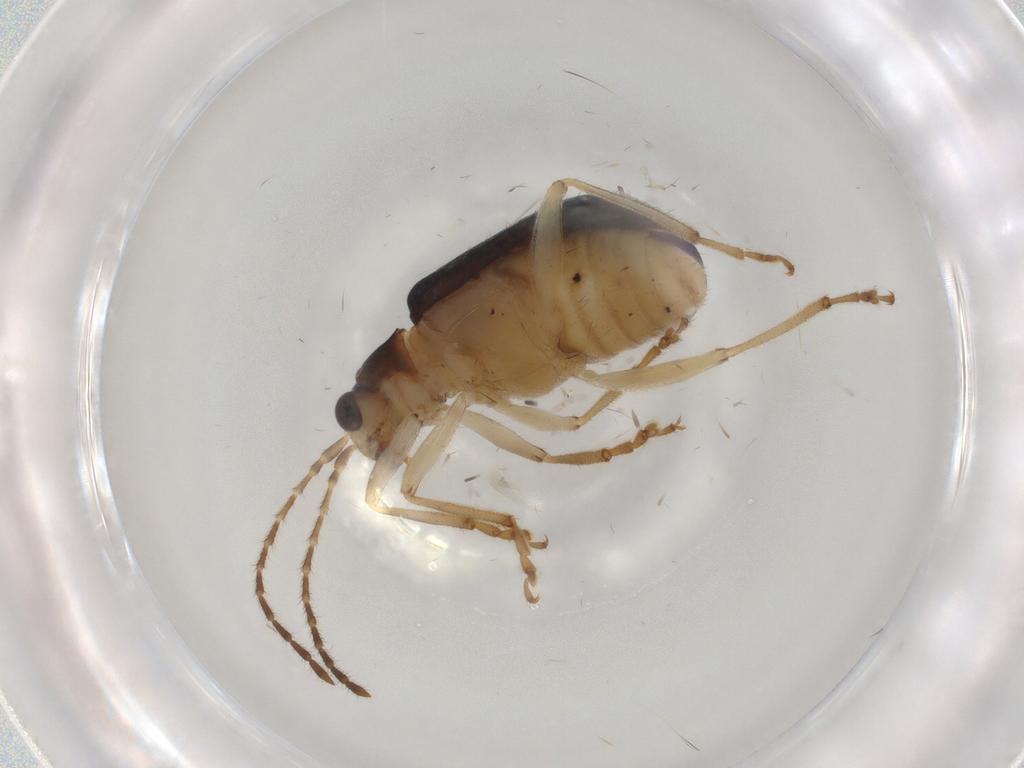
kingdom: Animalia
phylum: Arthropoda
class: Insecta
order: Coleoptera
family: Chrysomelidae
